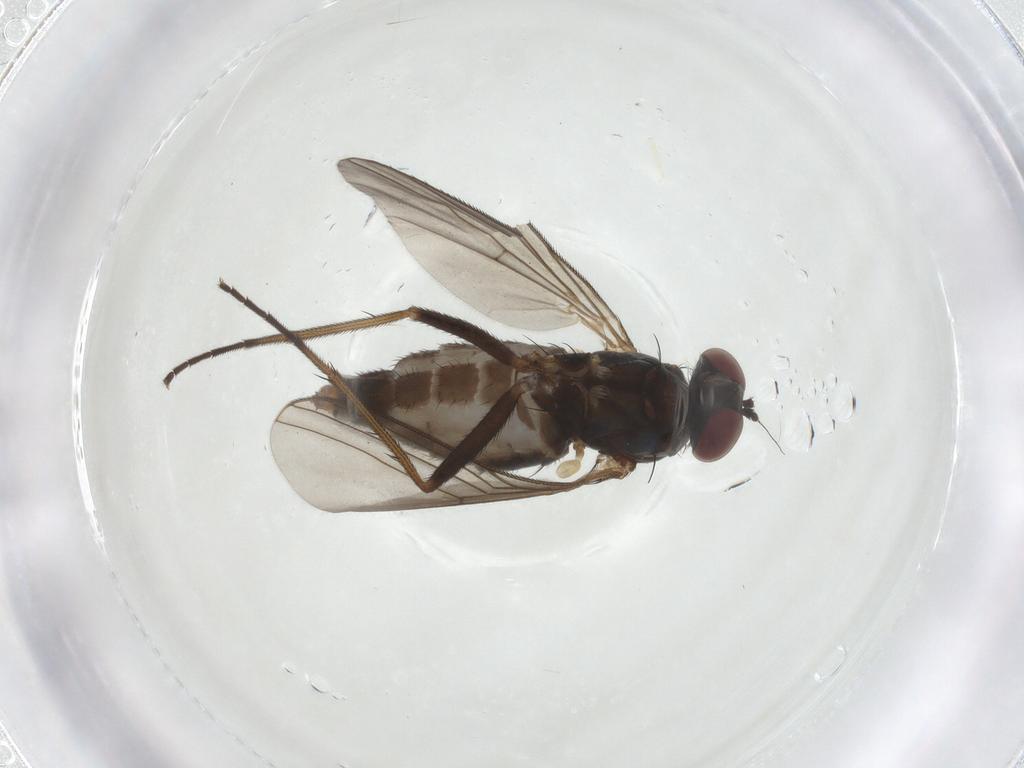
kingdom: Animalia
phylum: Arthropoda
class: Insecta
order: Diptera
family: Dolichopodidae
